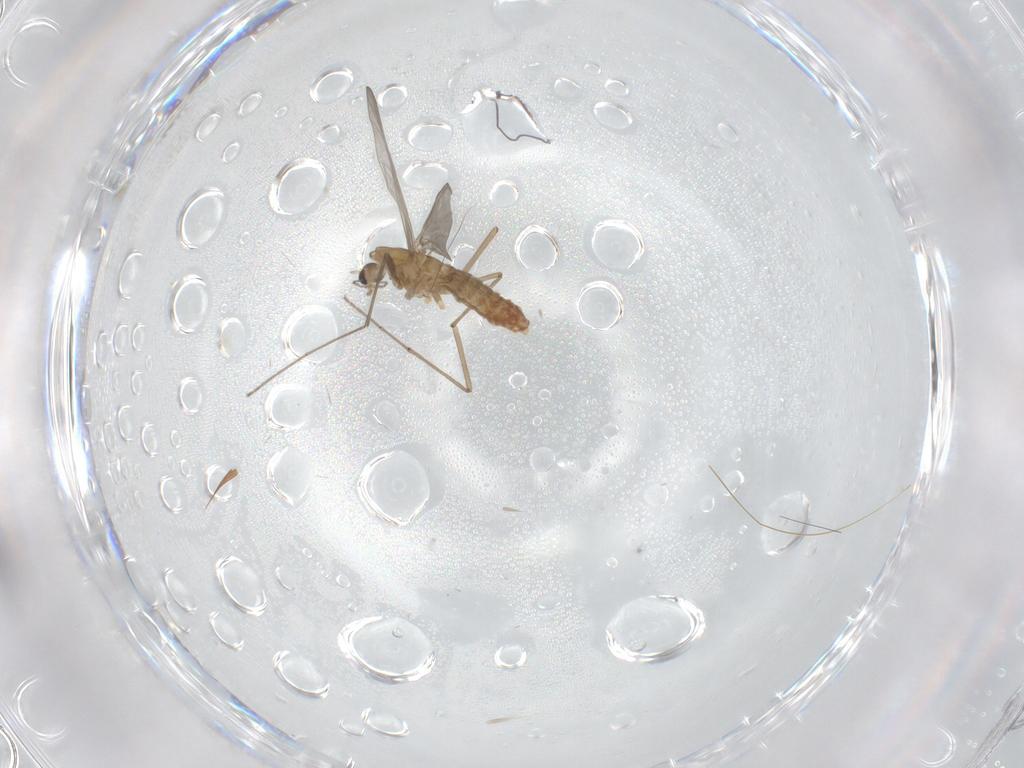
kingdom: Animalia
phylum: Arthropoda
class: Insecta
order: Diptera
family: Chironomidae
